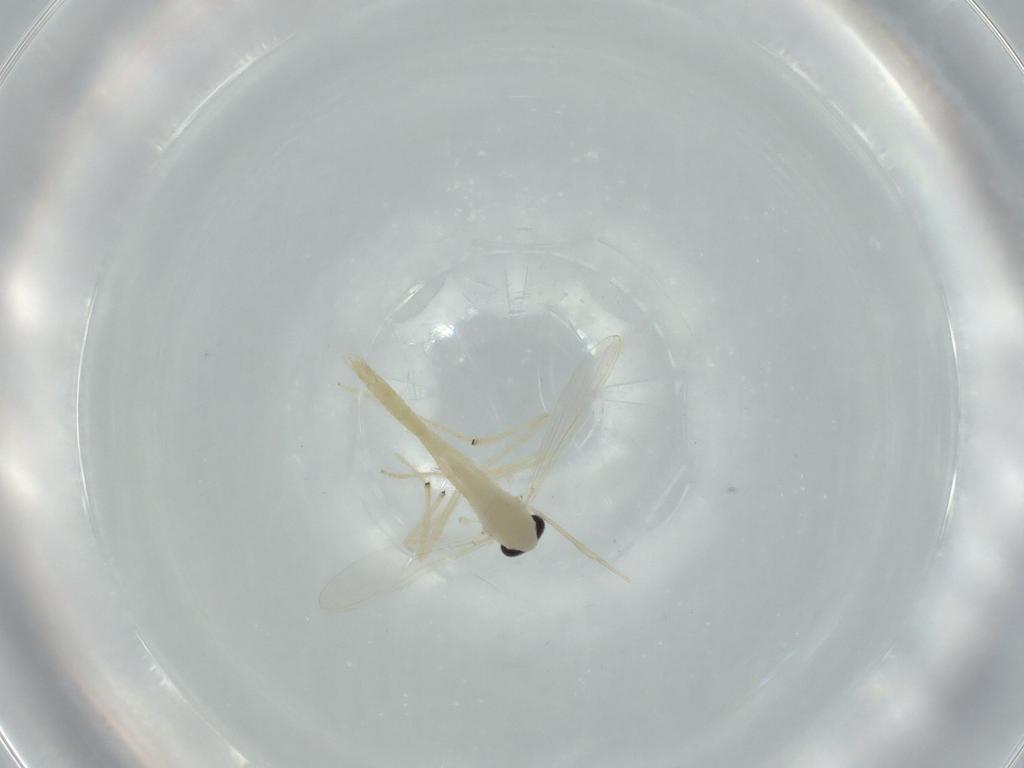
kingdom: Animalia
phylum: Arthropoda
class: Insecta
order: Diptera
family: Chironomidae
